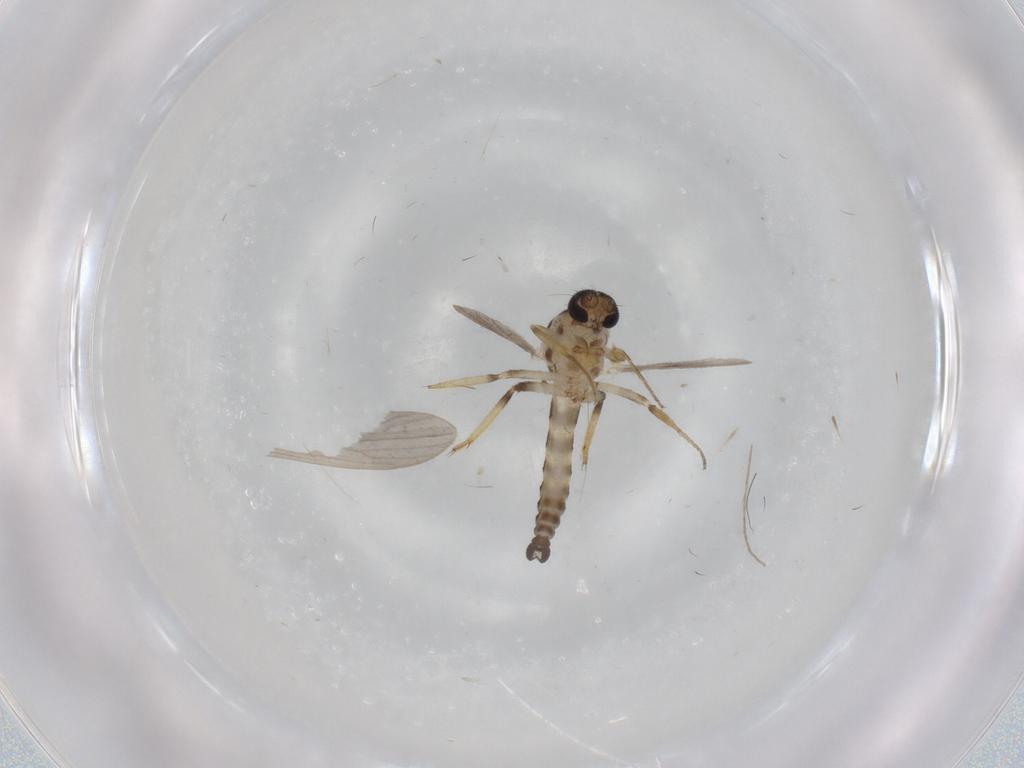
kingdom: Animalia
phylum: Arthropoda
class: Insecta
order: Diptera
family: Ceratopogonidae
